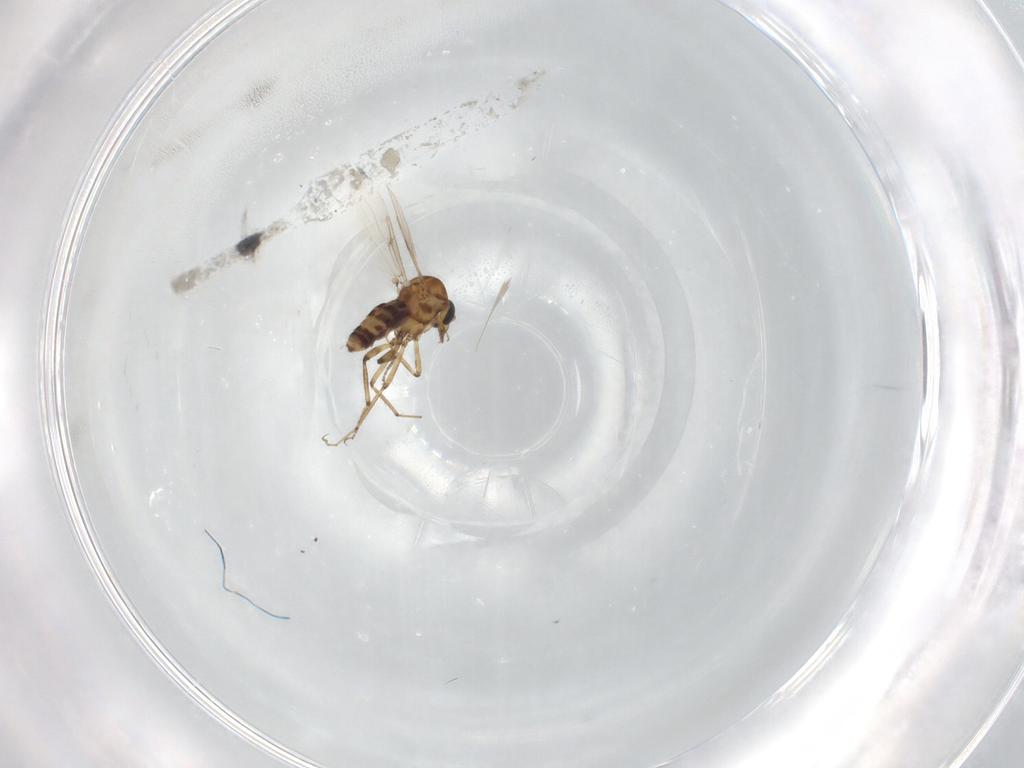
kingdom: Animalia
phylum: Arthropoda
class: Insecta
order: Diptera
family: Ceratopogonidae
